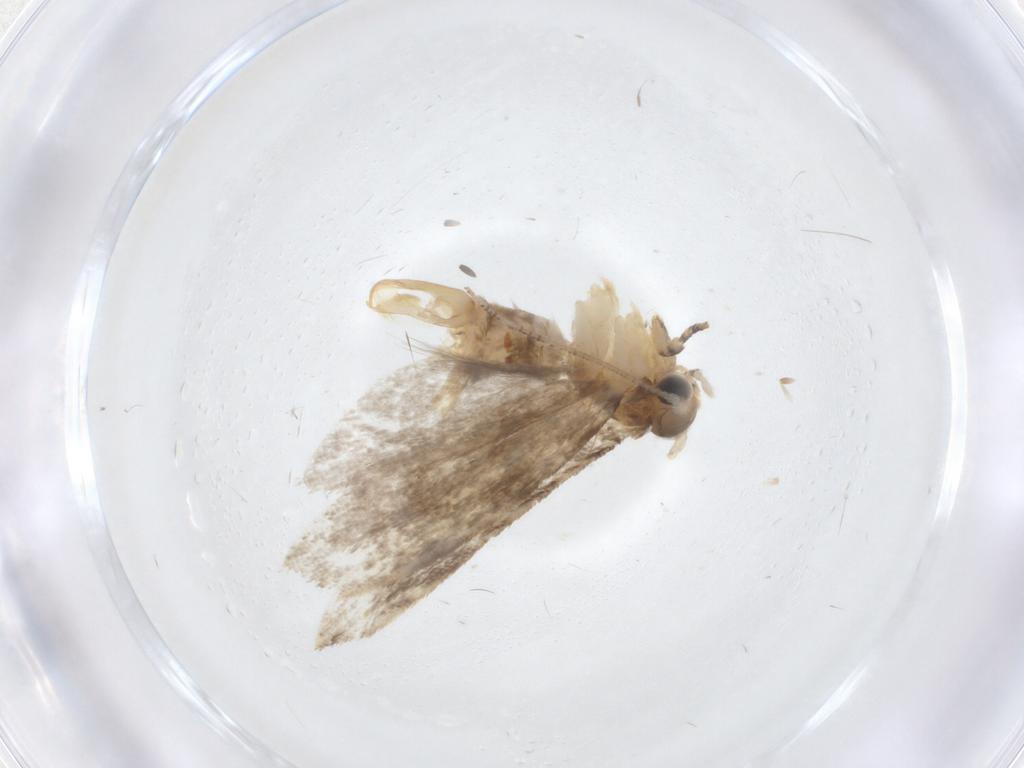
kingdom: Animalia
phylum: Arthropoda
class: Insecta
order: Lepidoptera
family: Tineidae
